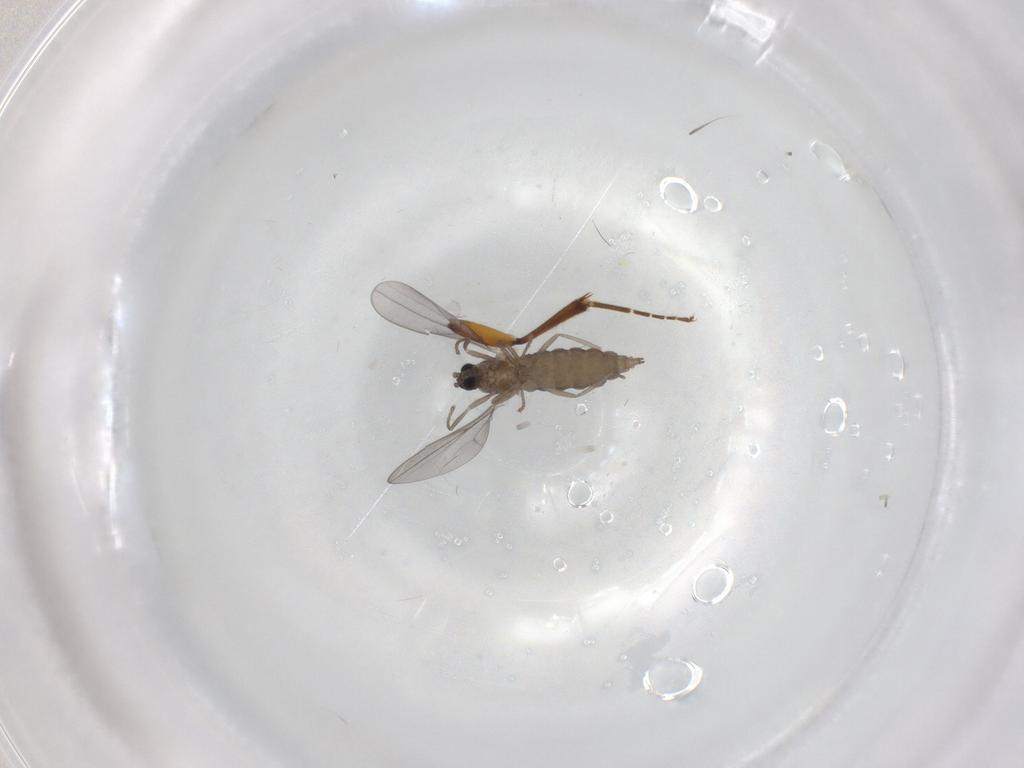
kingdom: Animalia
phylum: Arthropoda
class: Insecta
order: Diptera
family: Cecidomyiidae
